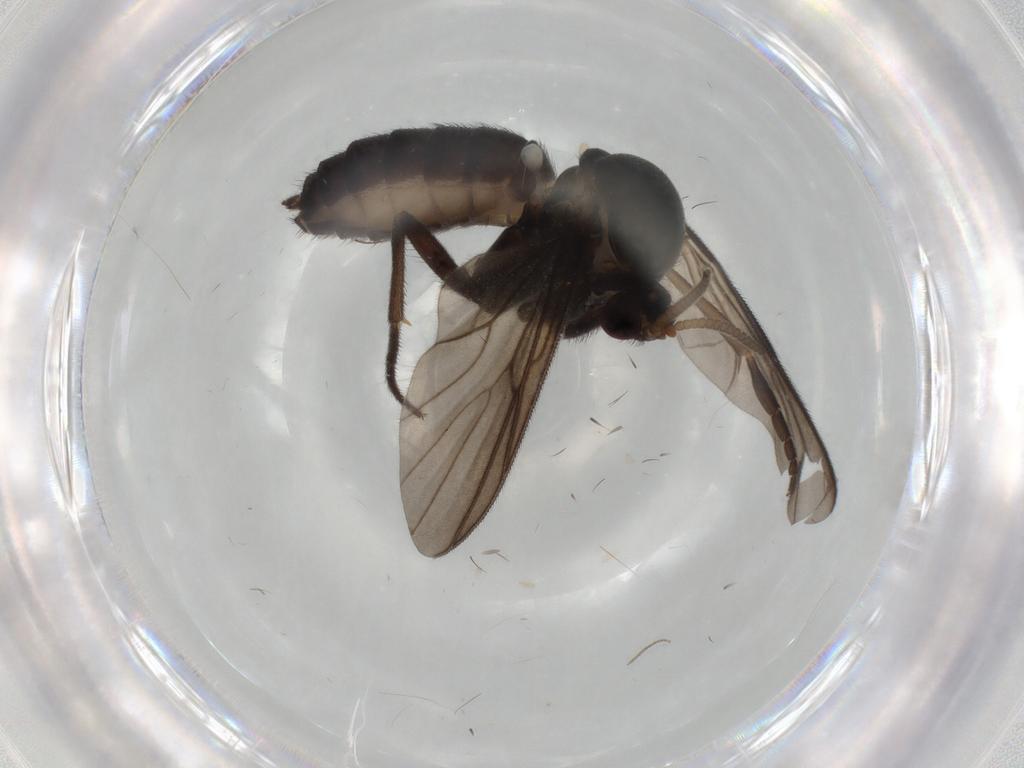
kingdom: Animalia
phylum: Arthropoda
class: Insecta
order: Diptera
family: Mycetophilidae
